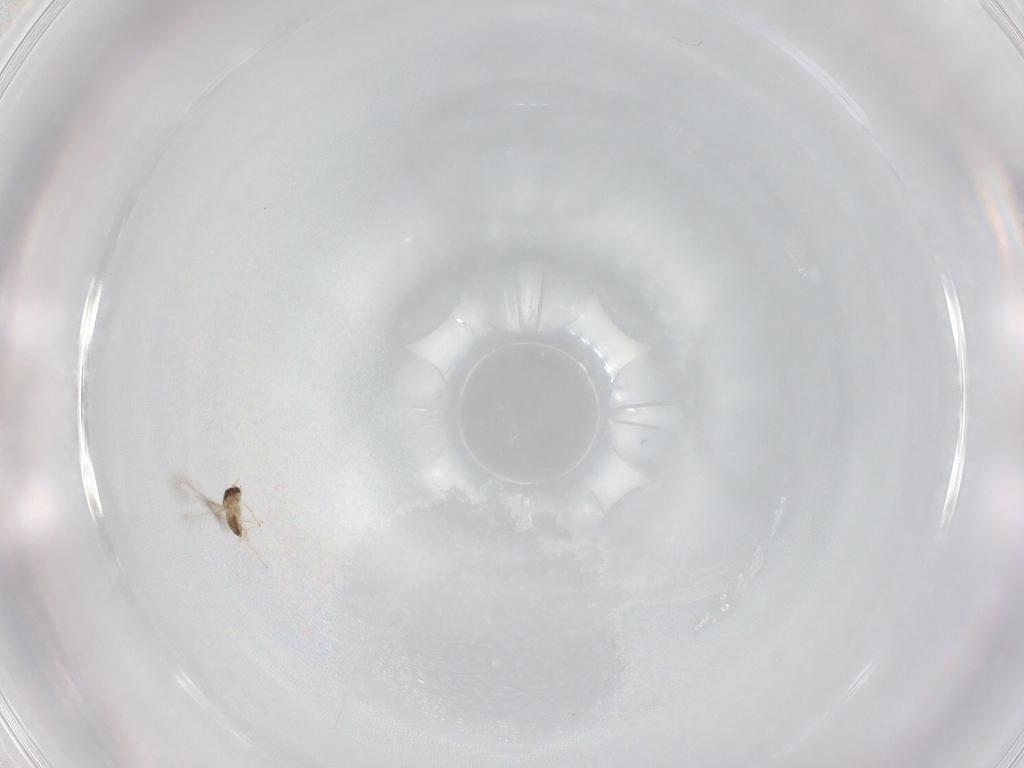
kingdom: Animalia
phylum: Arthropoda
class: Insecta
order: Hymenoptera
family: Mymaridae
